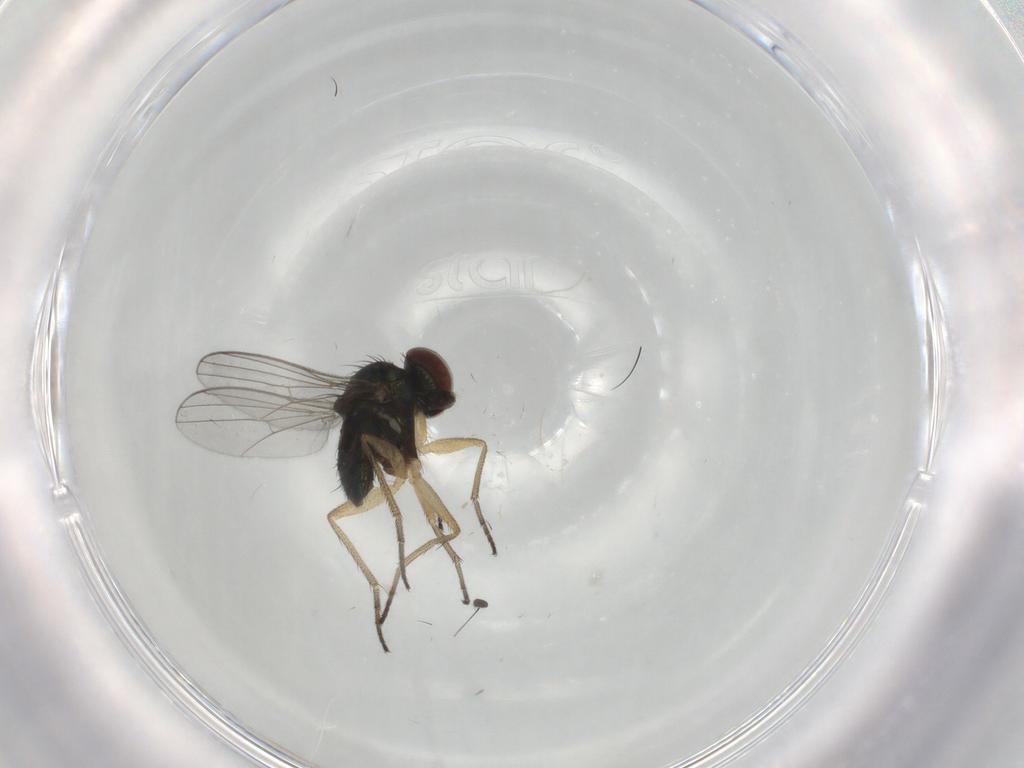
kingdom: Animalia
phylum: Arthropoda
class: Insecta
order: Diptera
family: Dolichopodidae
